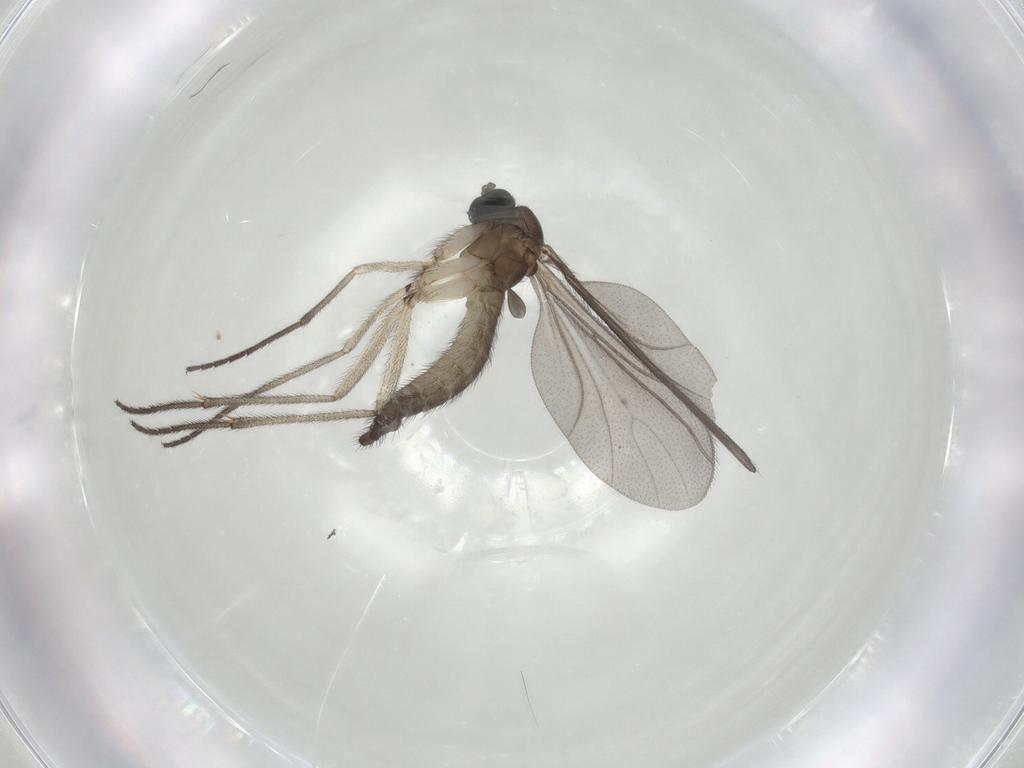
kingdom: Animalia
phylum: Arthropoda
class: Insecta
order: Diptera
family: Sciaridae
